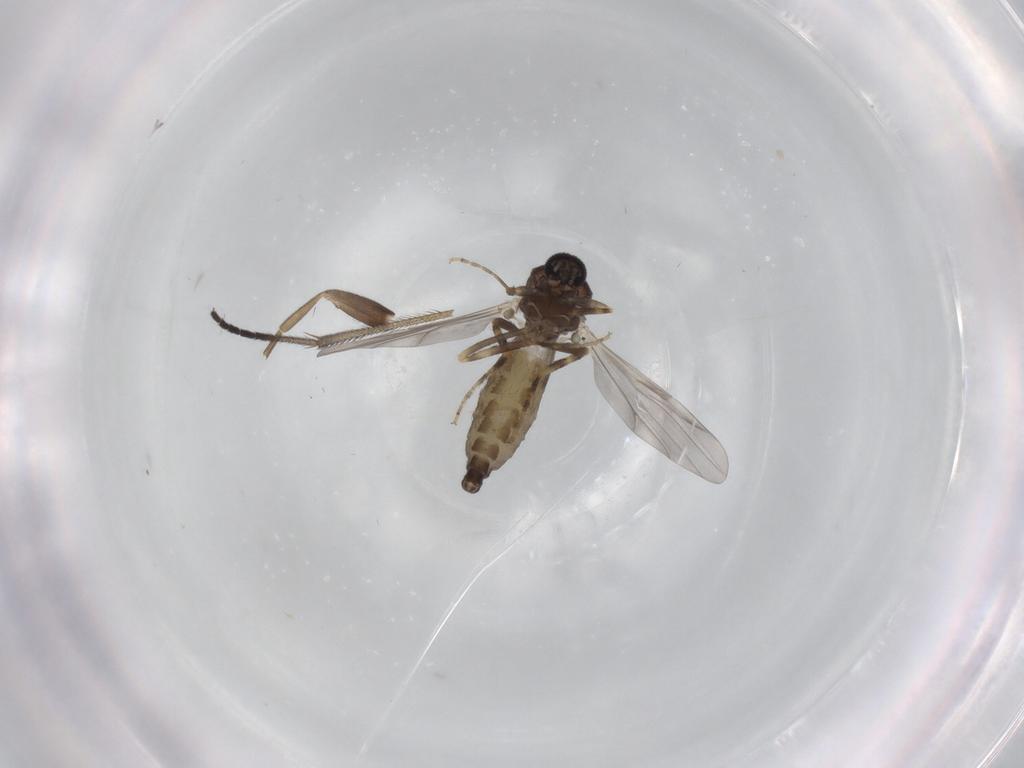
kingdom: Animalia
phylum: Arthropoda
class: Insecta
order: Diptera
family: Ceratopogonidae
